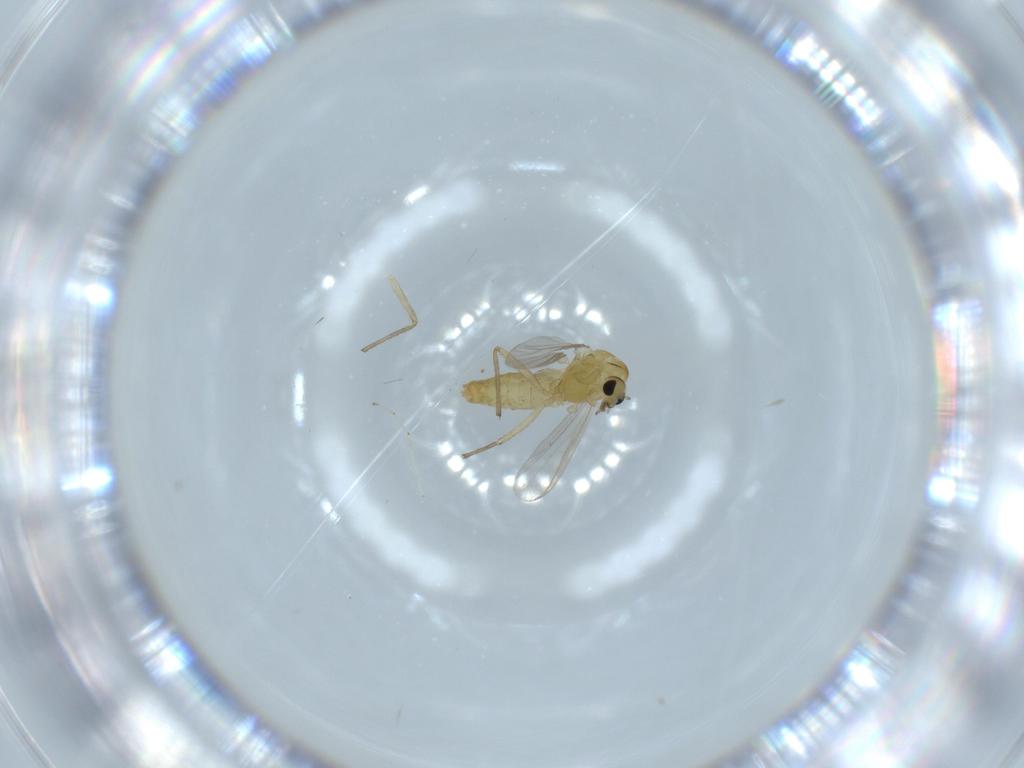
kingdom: Animalia
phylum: Arthropoda
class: Insecta
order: Diptera
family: Chironomidae
